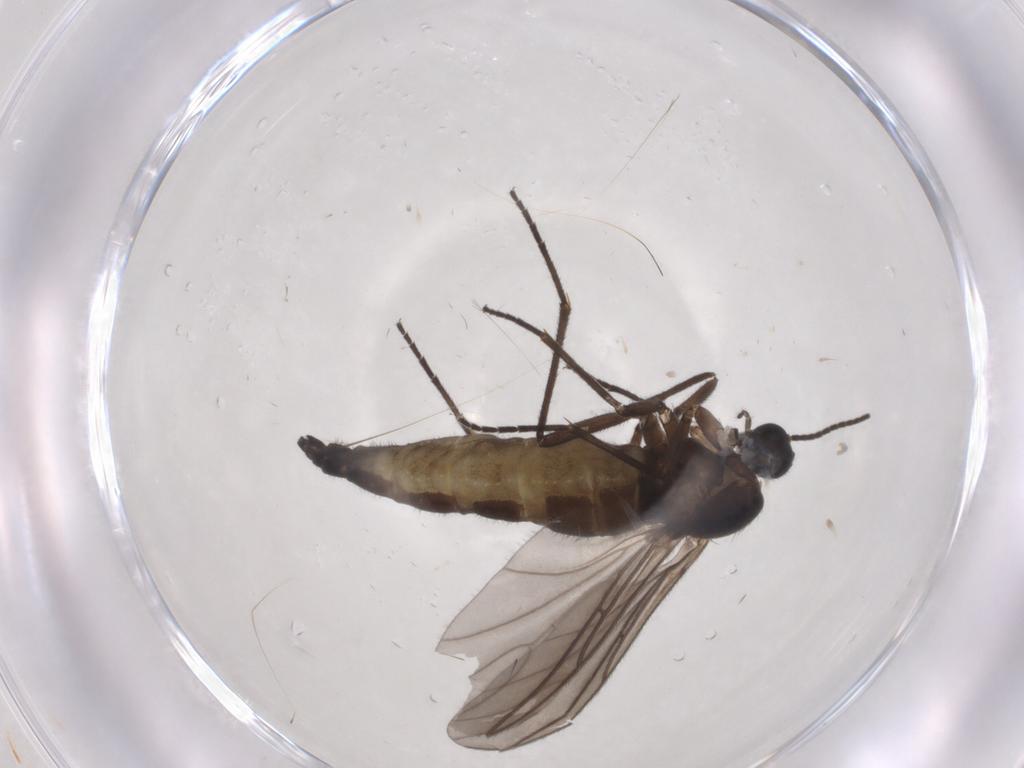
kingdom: Animalia
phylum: Arthropoda
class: Insecta
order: Diptera
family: Sciaridae
